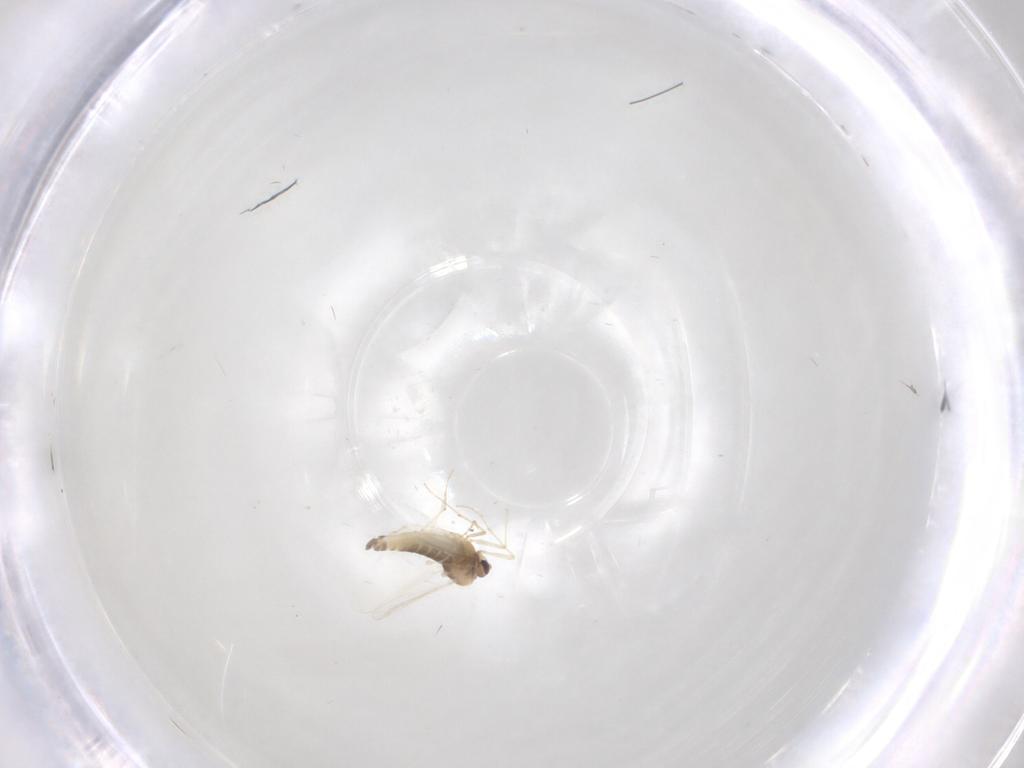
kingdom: Animalia
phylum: Arthropoda
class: Insecta
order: Diptera
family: Chironomidae
